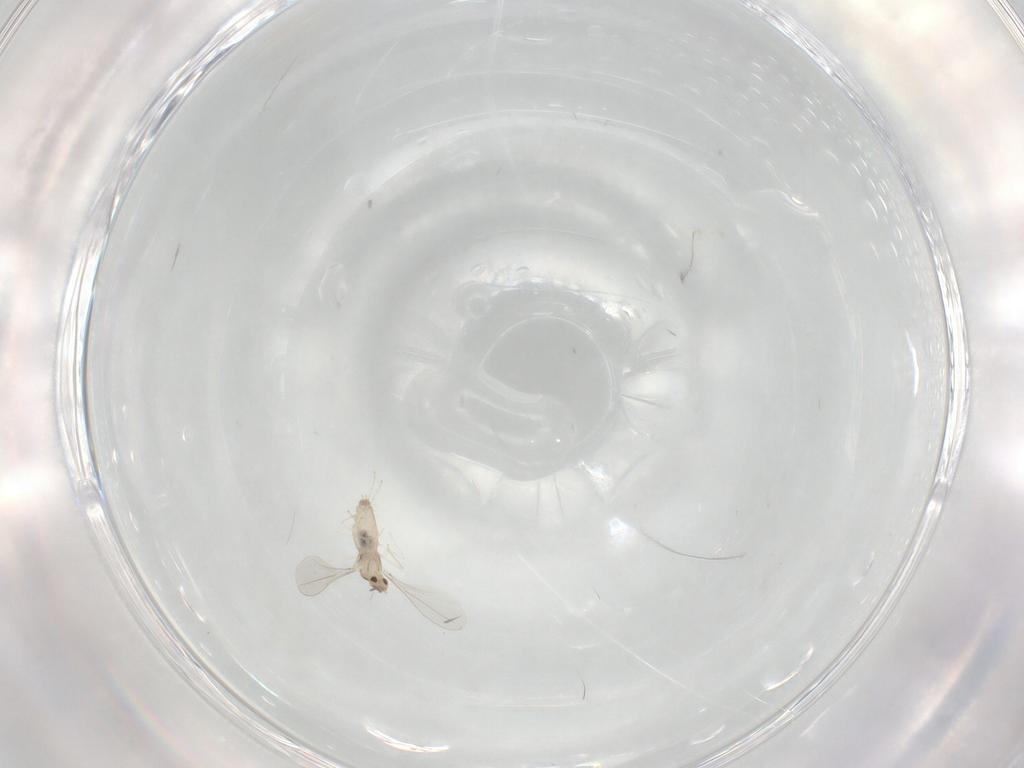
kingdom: Animalia
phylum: Arthropoda
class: Insecta
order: Diptera
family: Cecidomyiidae
